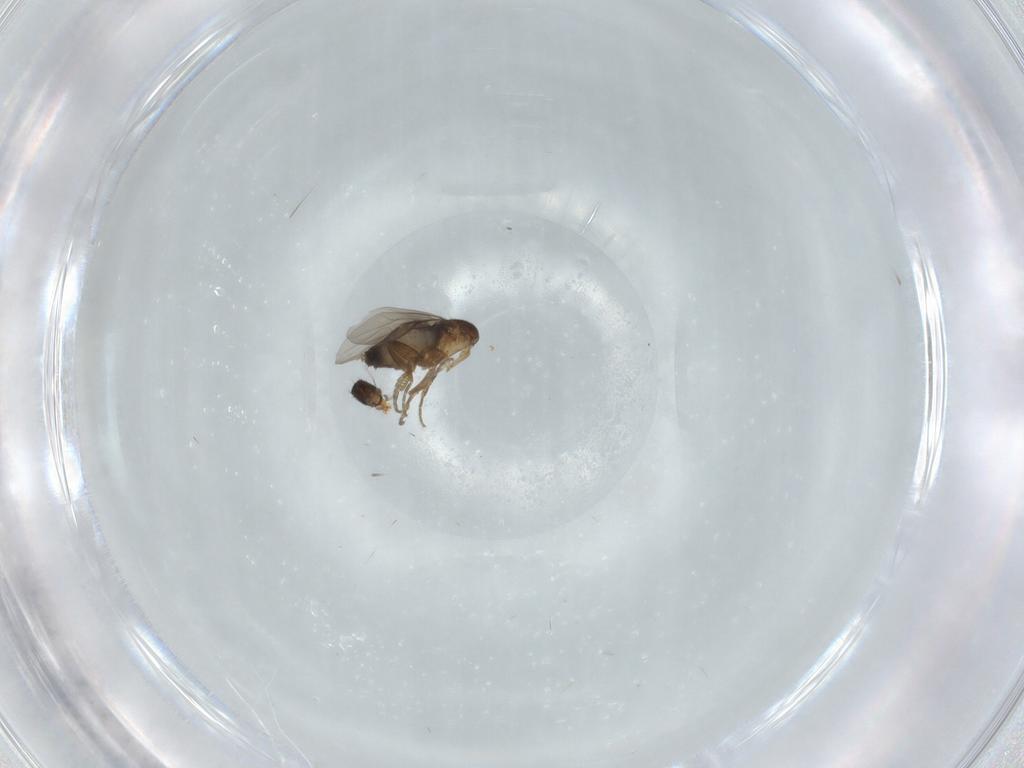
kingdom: Animalia
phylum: Arthropoda
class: Insecta
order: Diptera
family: Phoridae
